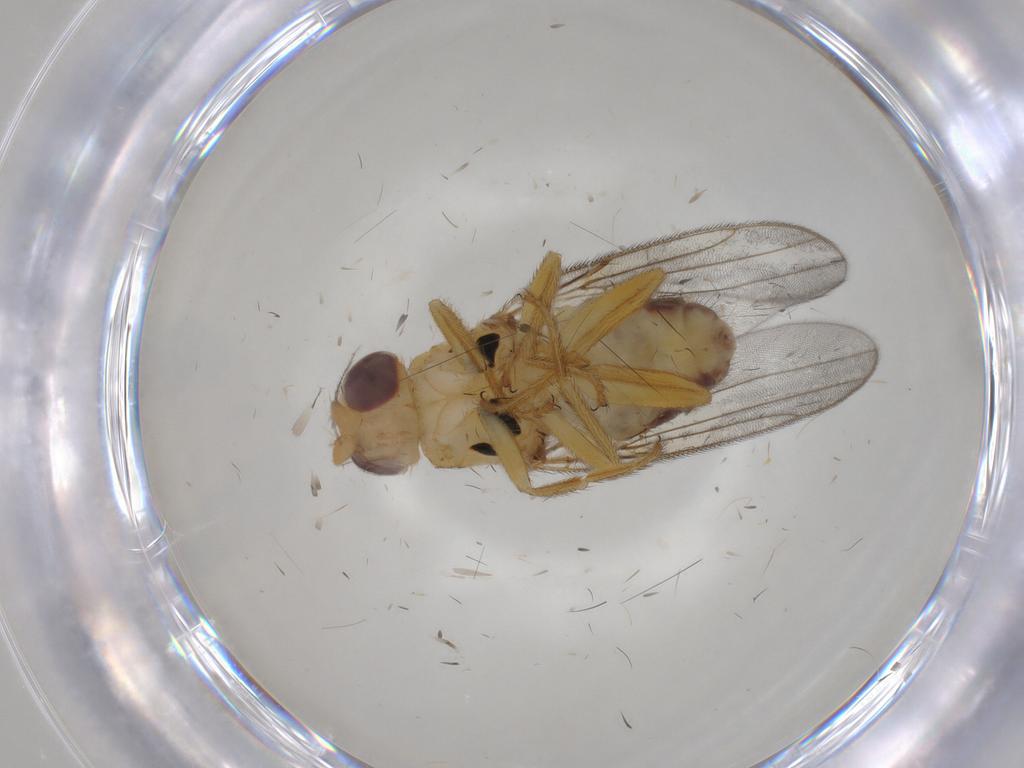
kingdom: Animalia
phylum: Arthropoda
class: Insecta
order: Diptera
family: Chloropidae
